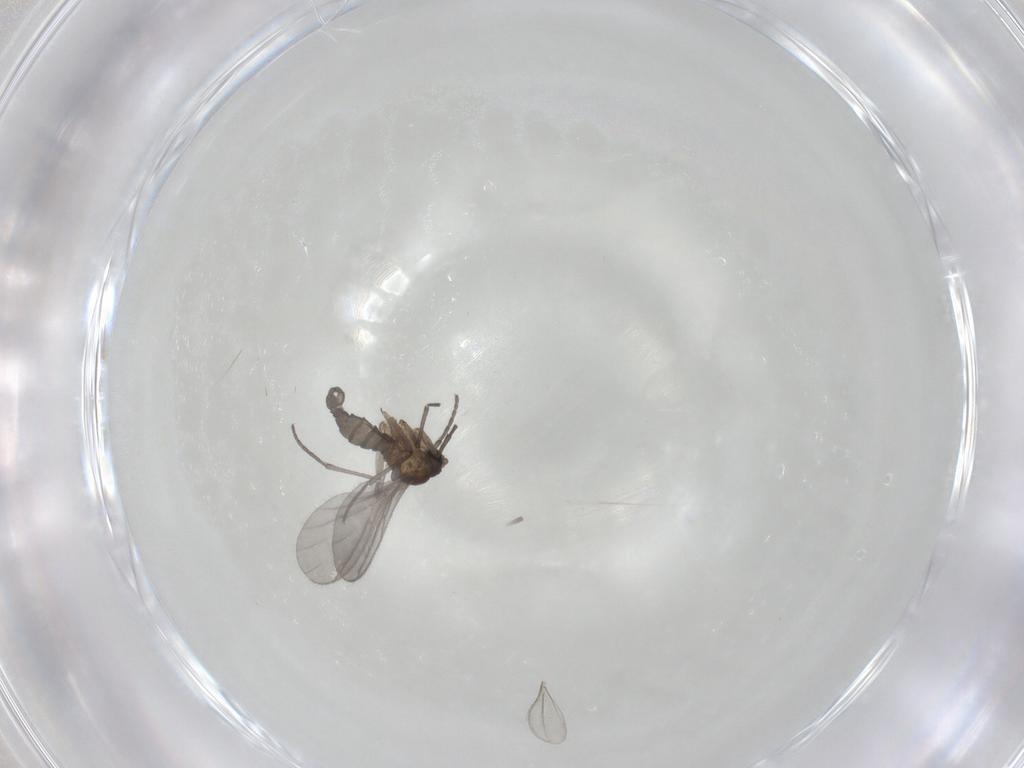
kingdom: Animalia
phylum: Arthropoda
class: Insecta
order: Diptera
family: Sciaridae
